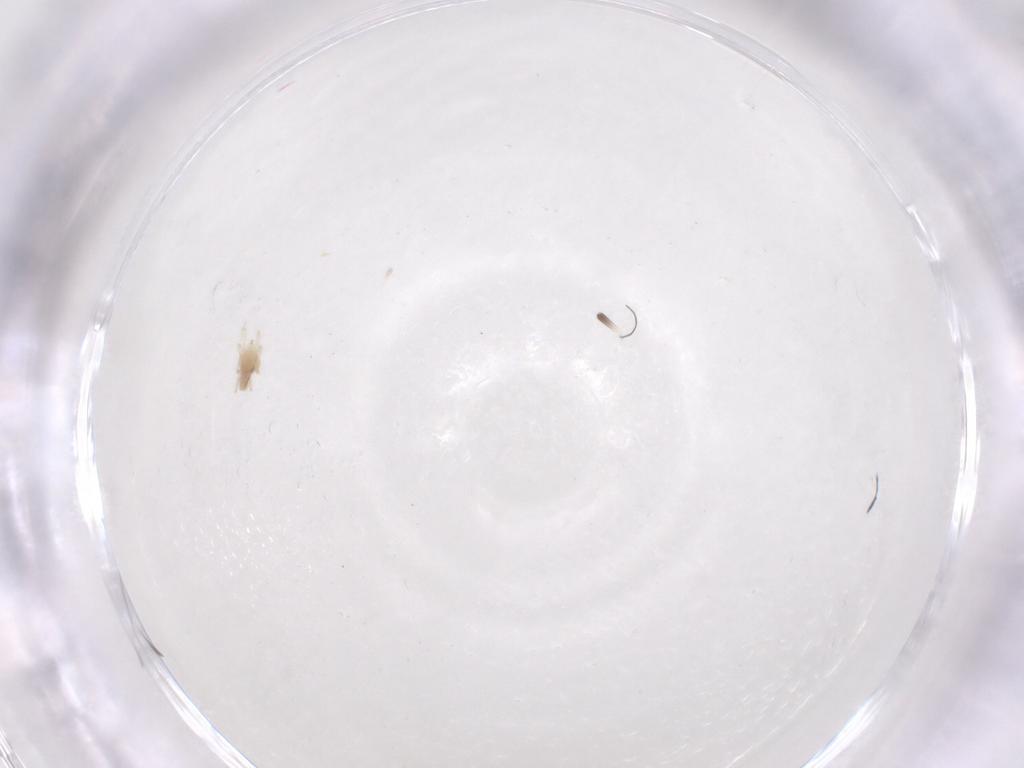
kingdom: Animalia
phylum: Arthropoda
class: Arachnida
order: Trombidiformes
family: Tetranychidae
